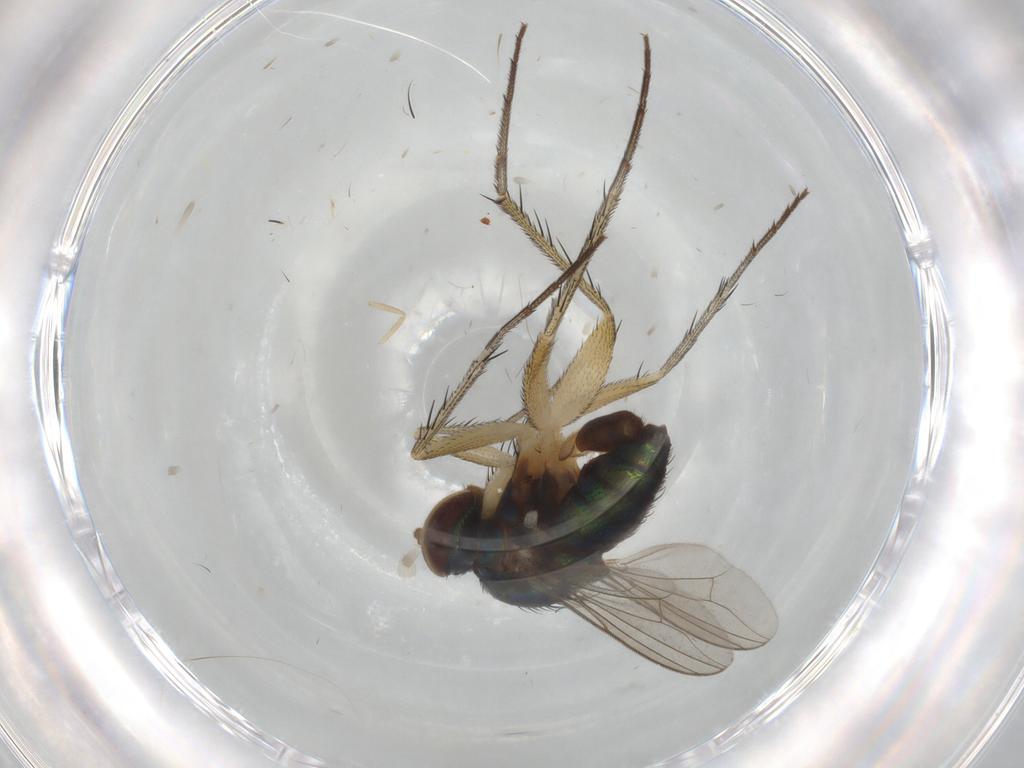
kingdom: Animalia
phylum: Arthropoda
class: Insecta
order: Diptera
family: Dolichopodidae
